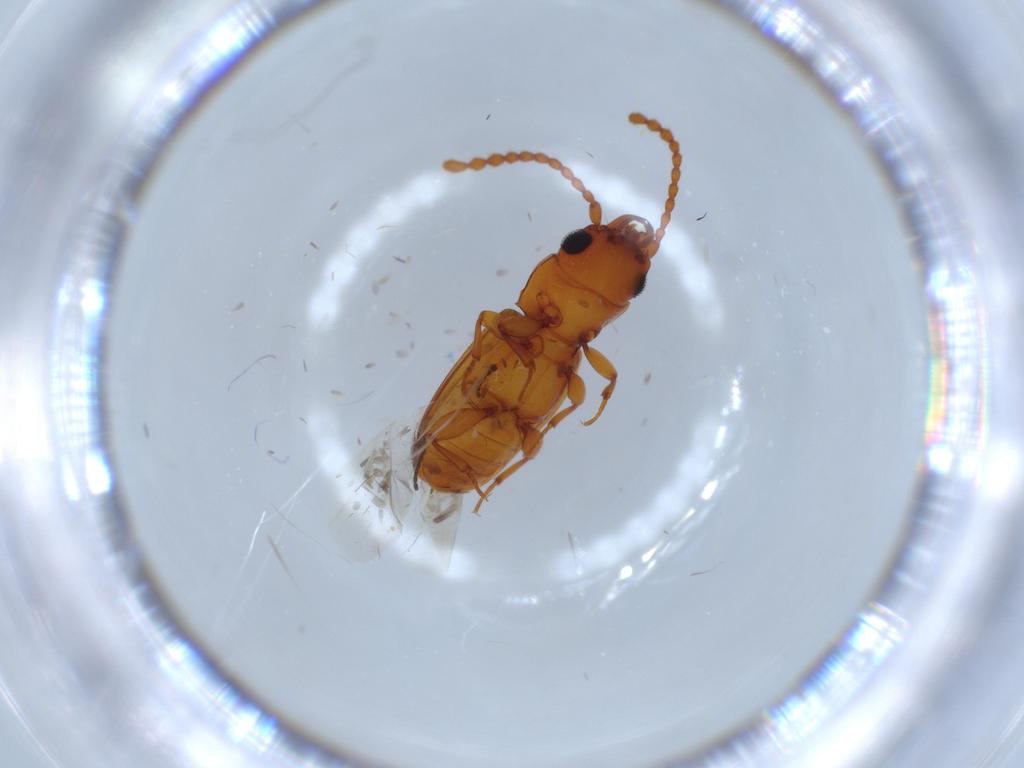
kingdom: Animalia
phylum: Arthropoda
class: Insecta
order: Coleoptera
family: Laemophloeidae
